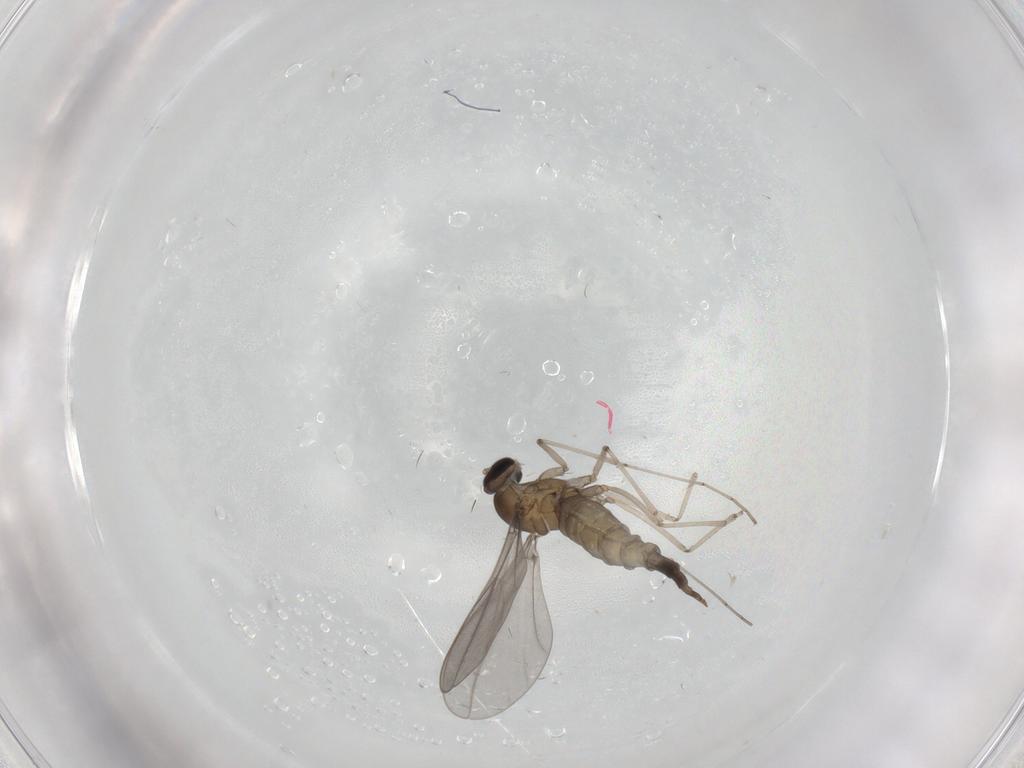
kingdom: Animalia
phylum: Arthropoda
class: Insecta
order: Diptera
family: Cecidomyiidae
